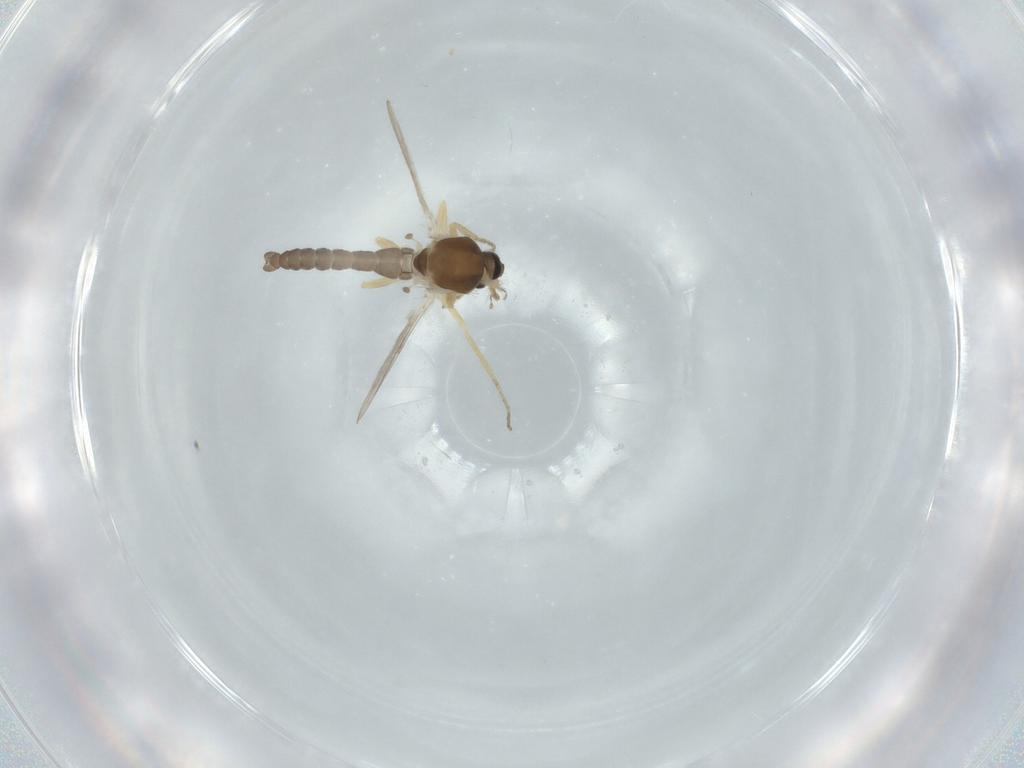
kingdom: Animalia
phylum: Arthropoda
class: Insecta
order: Diptera
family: Ceratopogonidae
